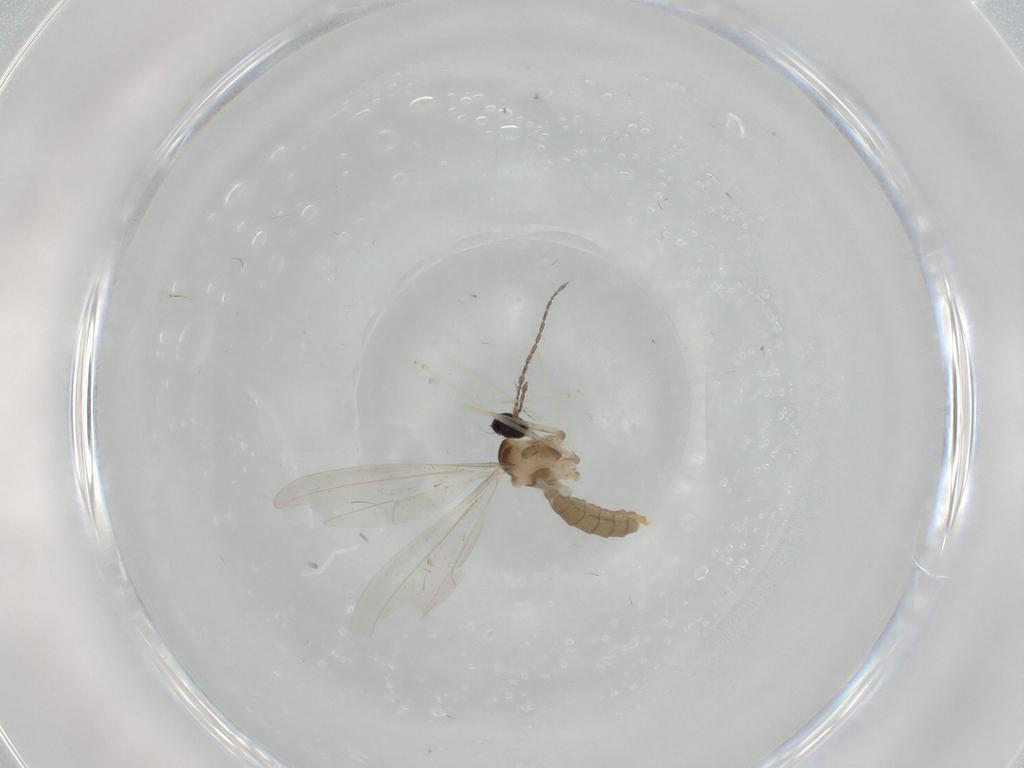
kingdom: Animalia
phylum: Arthropoda
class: Insecta
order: Diptera
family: Cecidomyiidae
